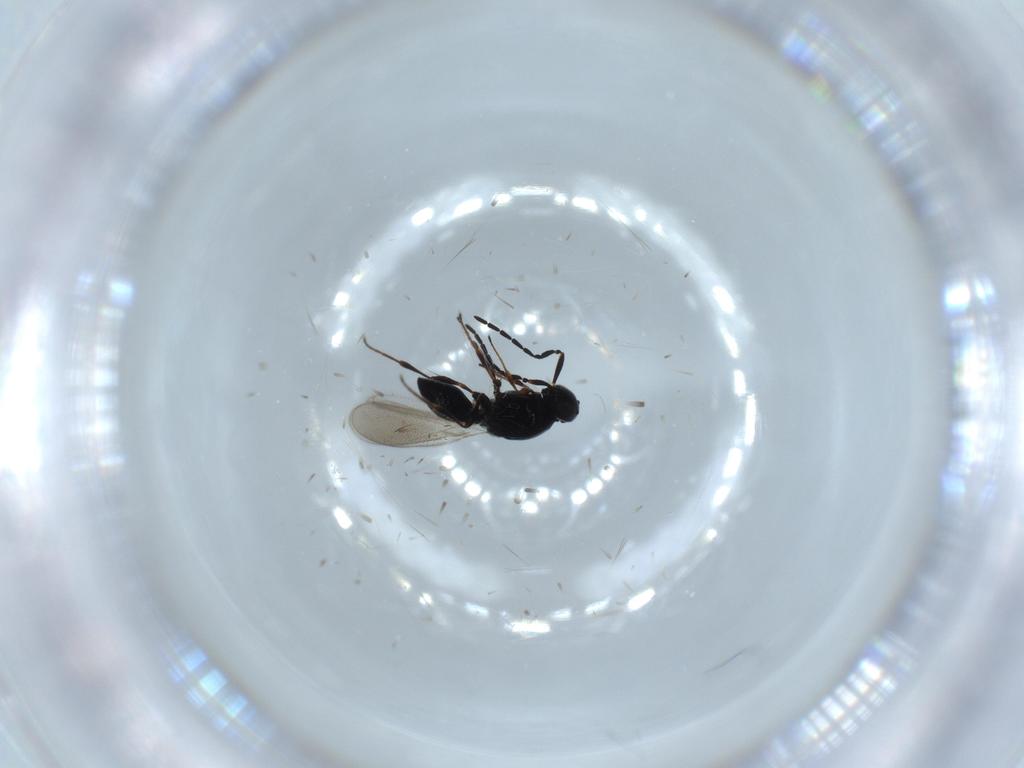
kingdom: Animalia
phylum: Arthropoda
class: Insecta
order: Hymenoptera
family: Platygastridae
